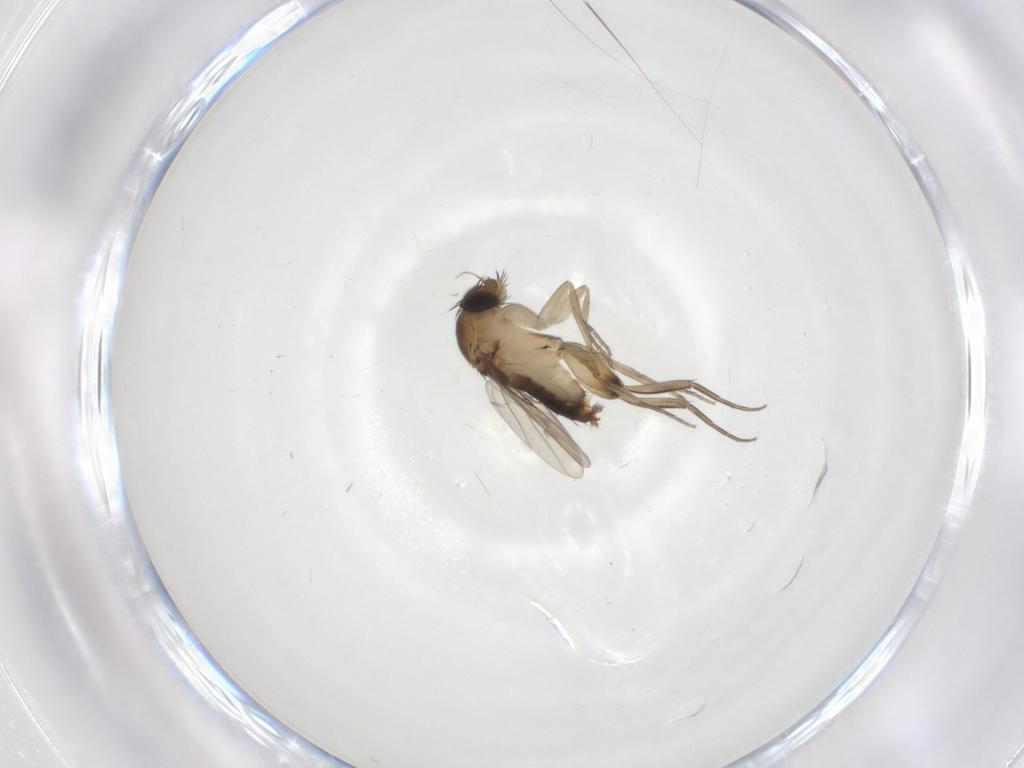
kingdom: Animalia
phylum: Arthropoda
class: Insecta
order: Diptera
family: Phoridae
